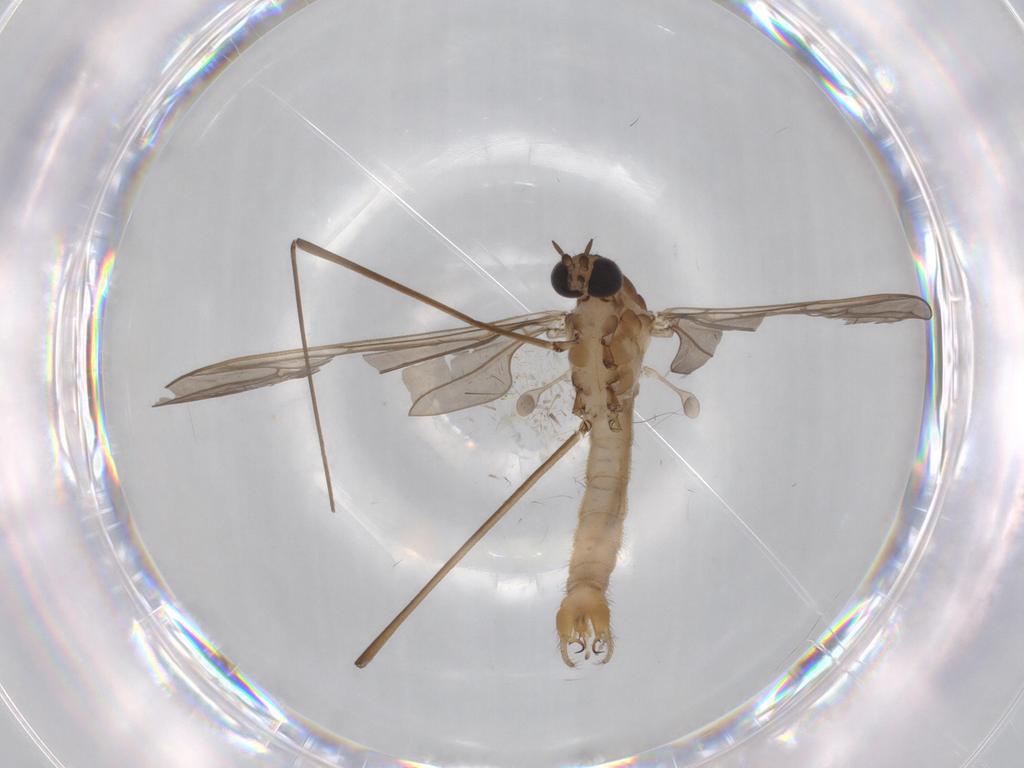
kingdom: Animalia
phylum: Arthropoda
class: Insecta
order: Diptera
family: Chironomidae
